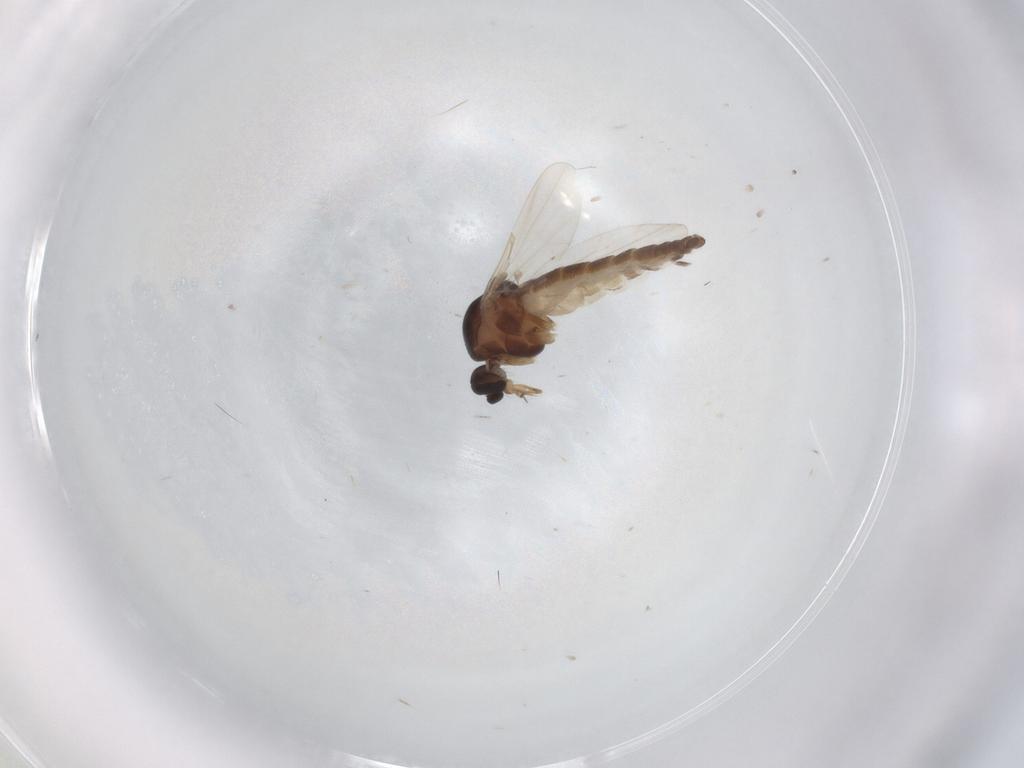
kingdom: Animalia
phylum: Arthropoda
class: Insecta
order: Diptera
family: Ceratopogonidae
